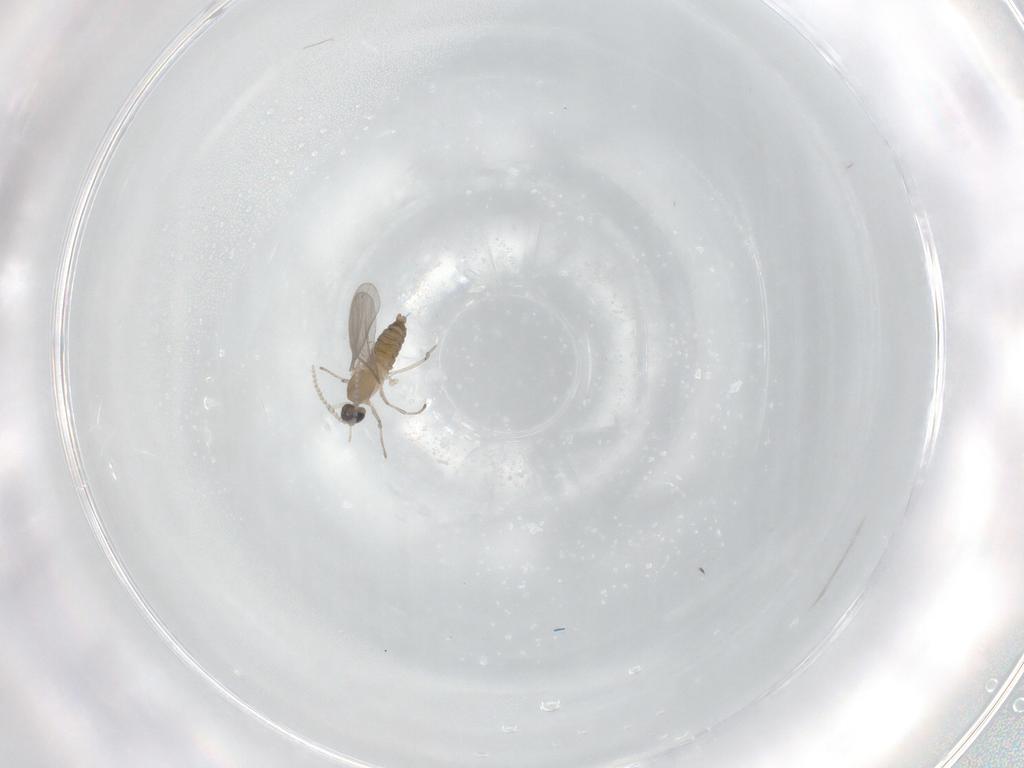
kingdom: Animalia
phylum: Arthropoda
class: Insecta
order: Diptera
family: Cecidomyiidae
